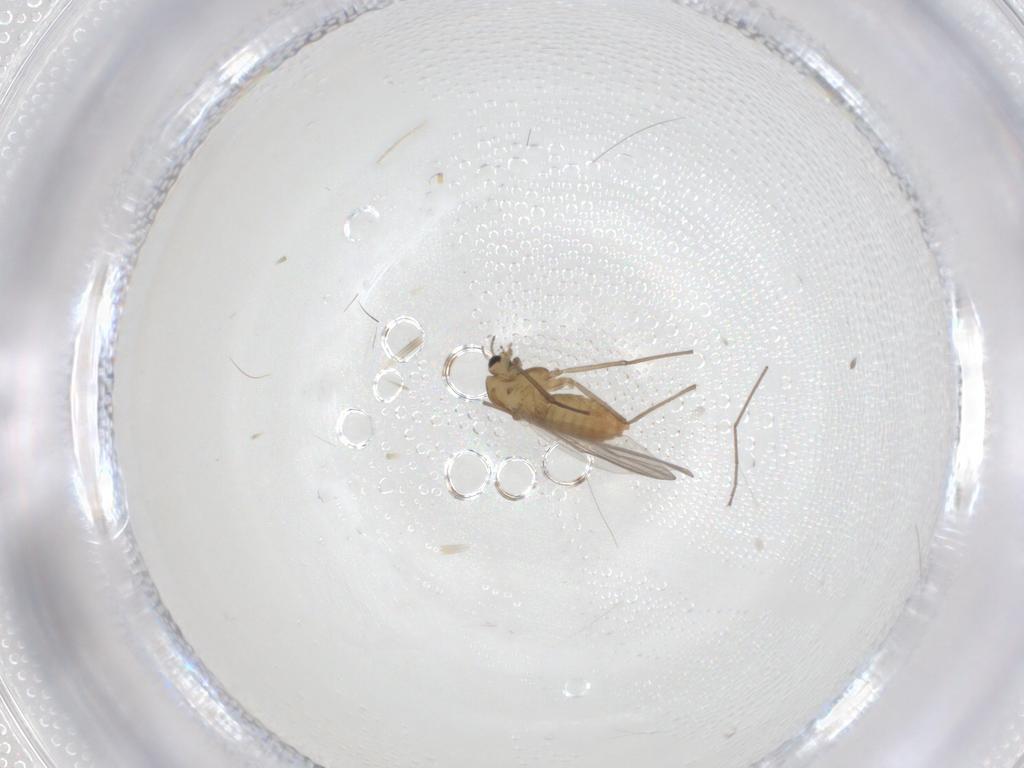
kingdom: Animalia
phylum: Arthropoda
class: Insecta
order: Diptera
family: Chironomidae
